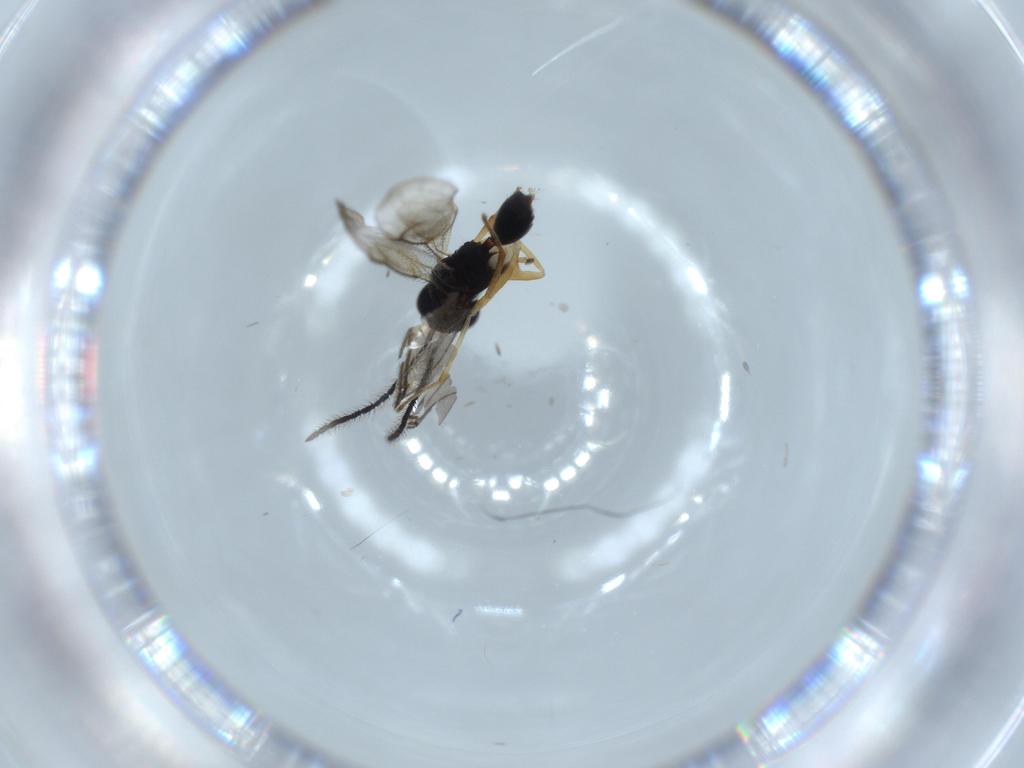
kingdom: Animalia
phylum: Arthropoda
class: Insecta
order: Hymenoptera
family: Diparidae
